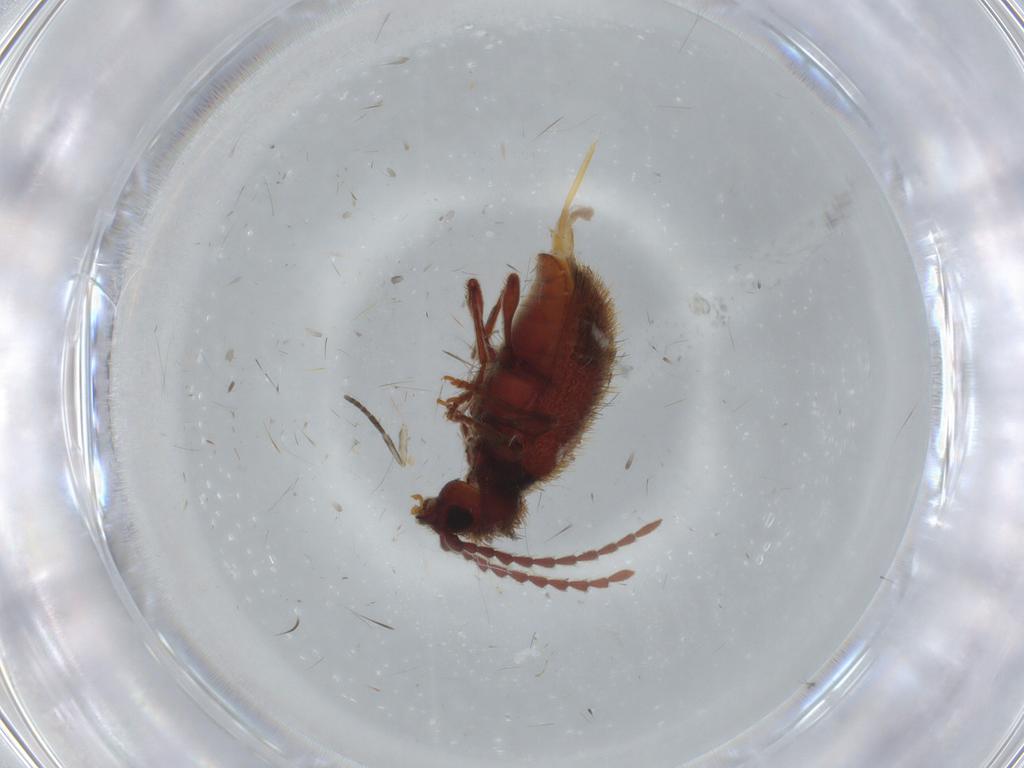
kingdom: Animalia
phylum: Arthropoda
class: Insecta
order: Coleoptera
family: Ptinidae
